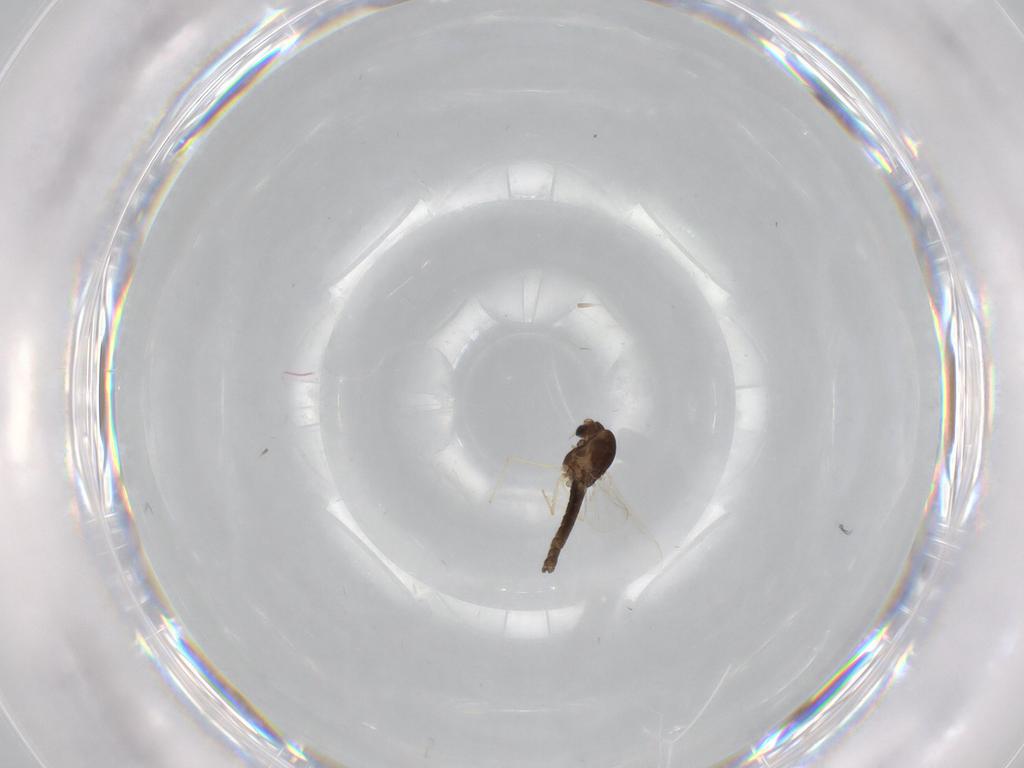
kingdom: Animalia
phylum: Arthropoda
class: Insecta
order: Diptera
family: Chironomidae
